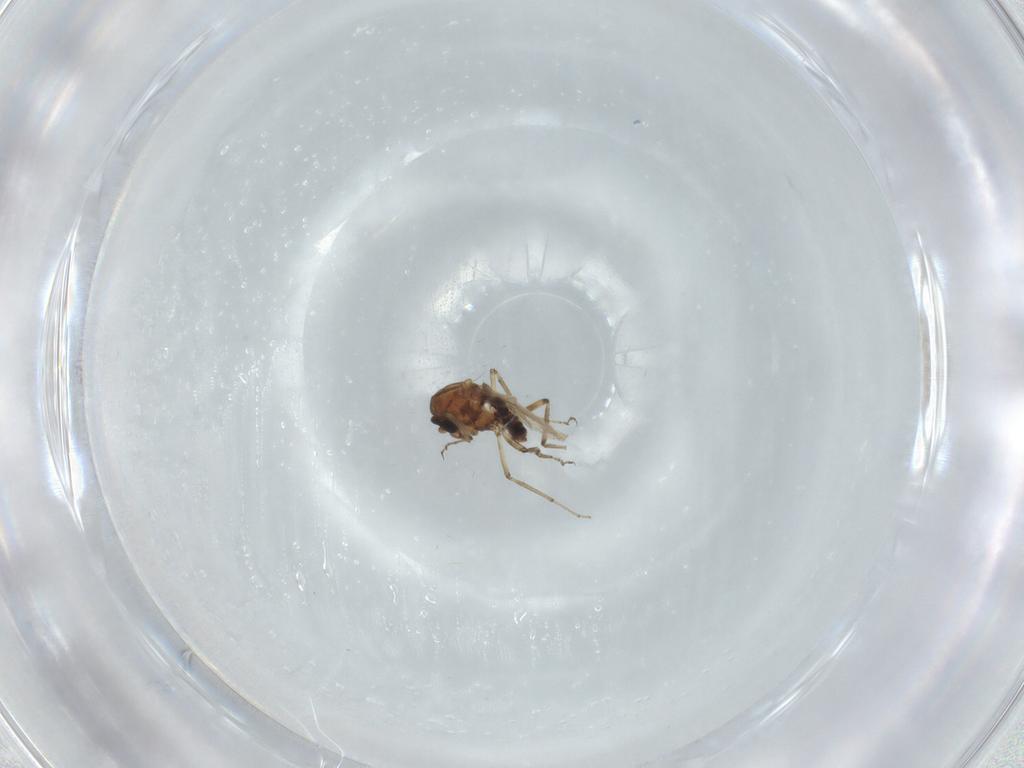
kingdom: Animalia
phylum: Arthropoda
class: Insecta
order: Diptera
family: Ceratopogonidae
